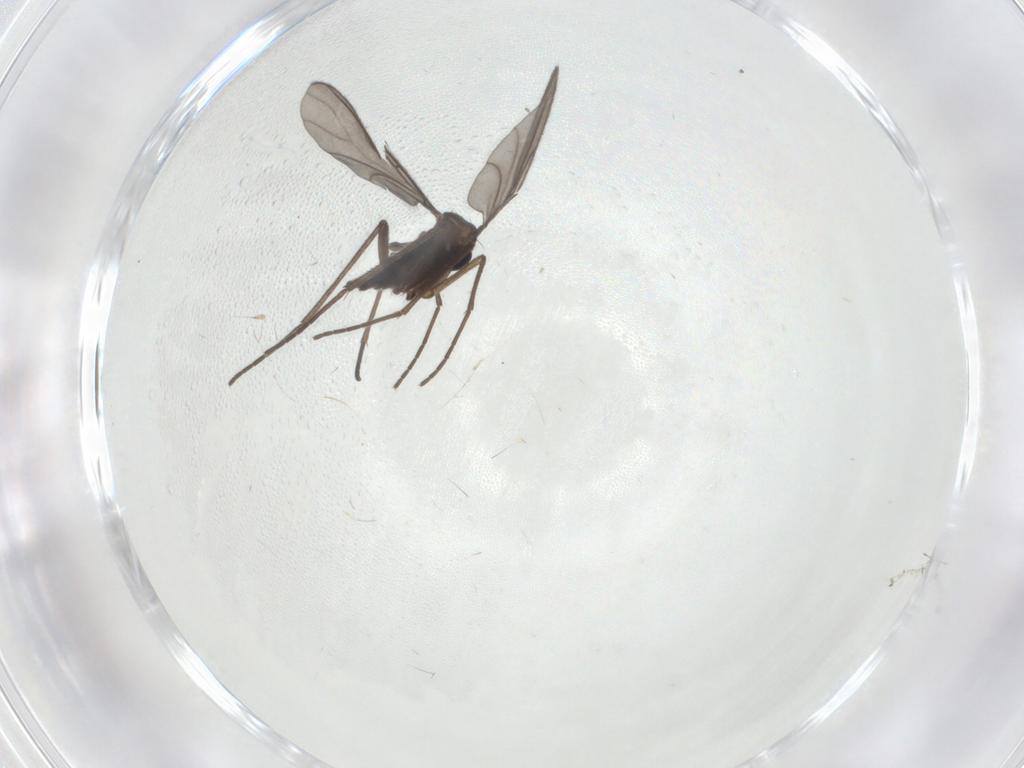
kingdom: Animalia
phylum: Arthropoda
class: Insecta
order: Diptera
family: Sciaridae
